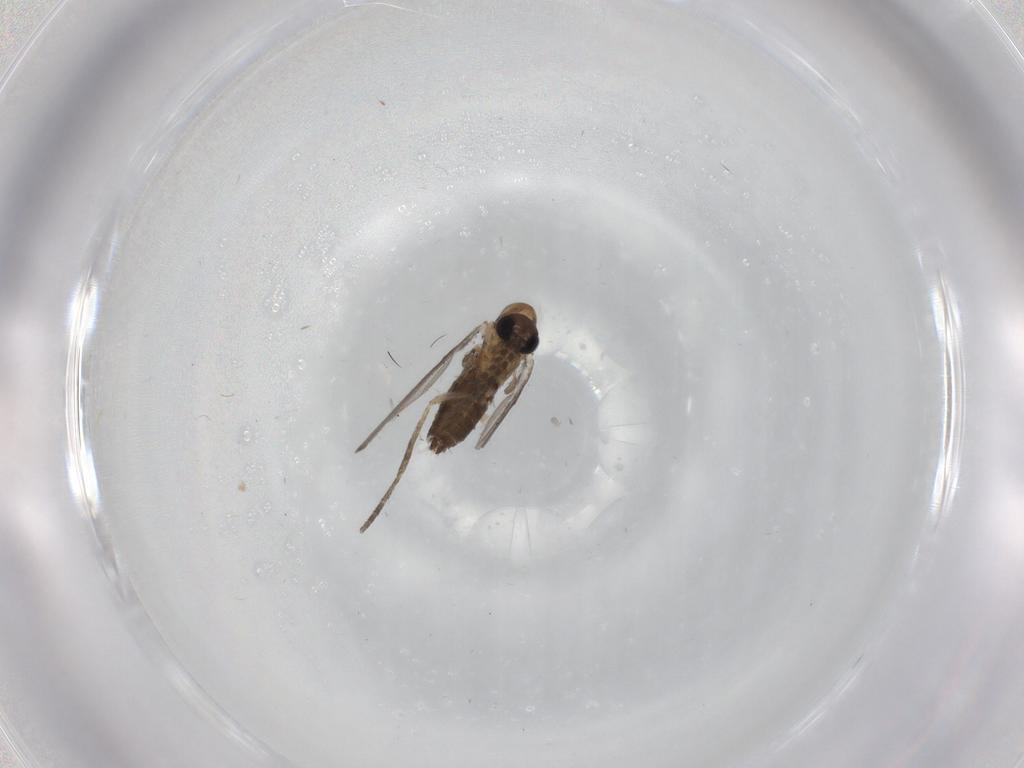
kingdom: Animalia
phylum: Arthropoda
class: Insecta
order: Diptera
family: Cecidomyiidae
